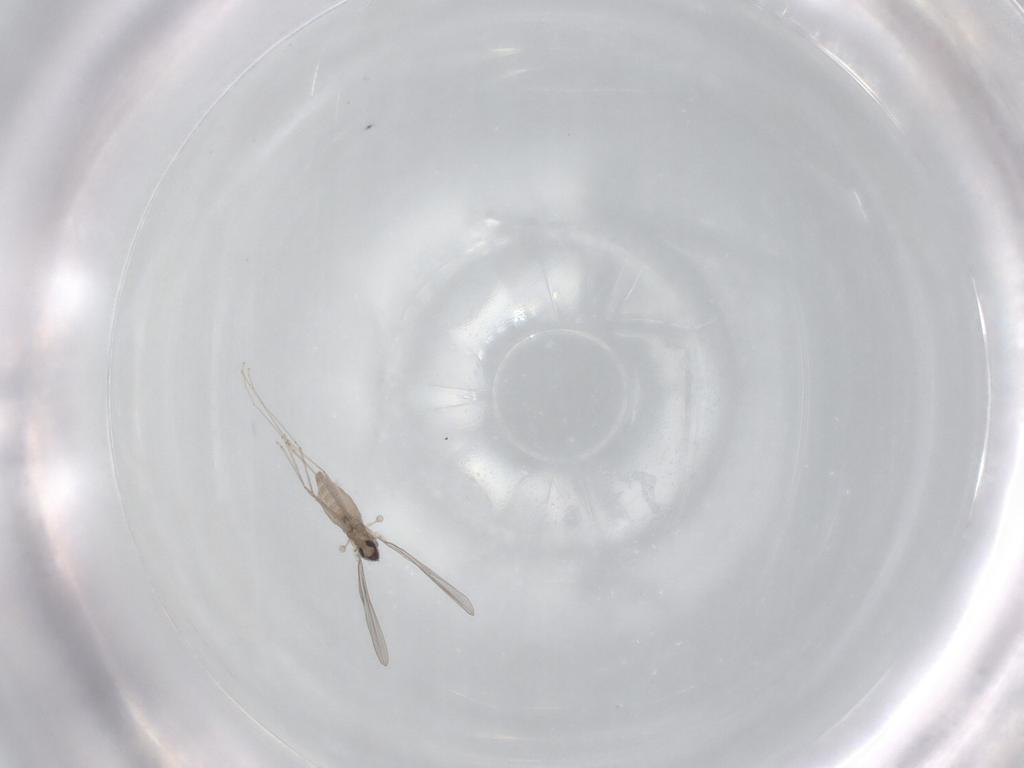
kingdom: Animalia
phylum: Arthropoda
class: Insecta
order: Diptera
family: Cecidomyiidae
